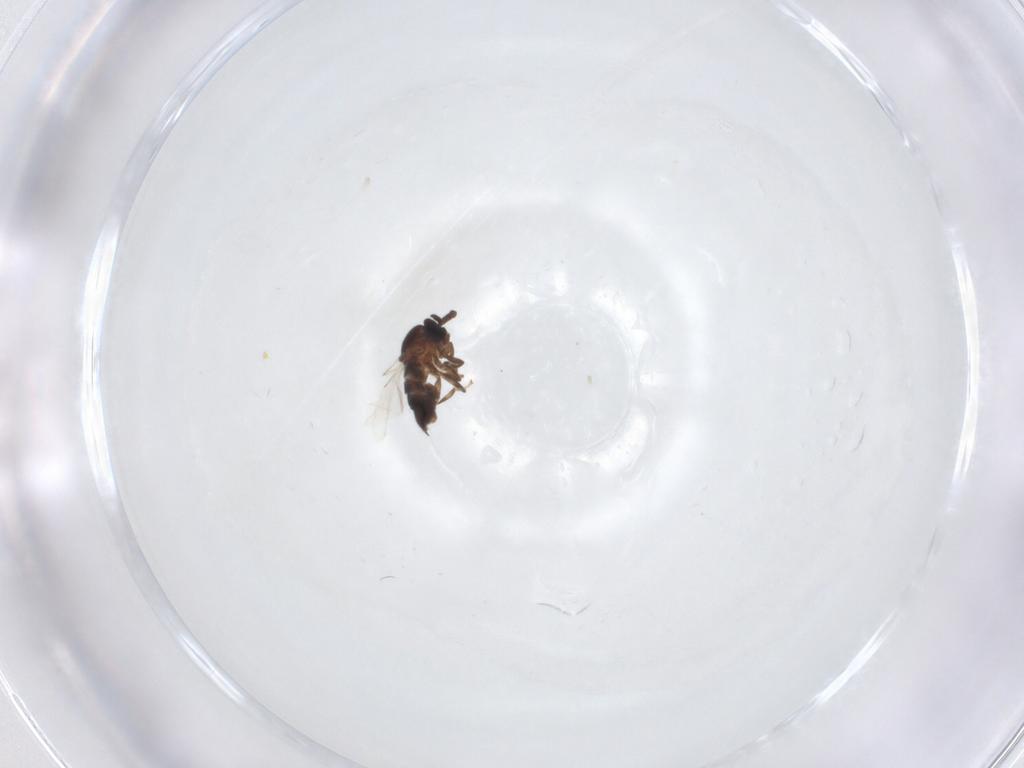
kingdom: Animalia
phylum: Arthropoda
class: Insecta
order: Diptera
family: Scatopsidae
